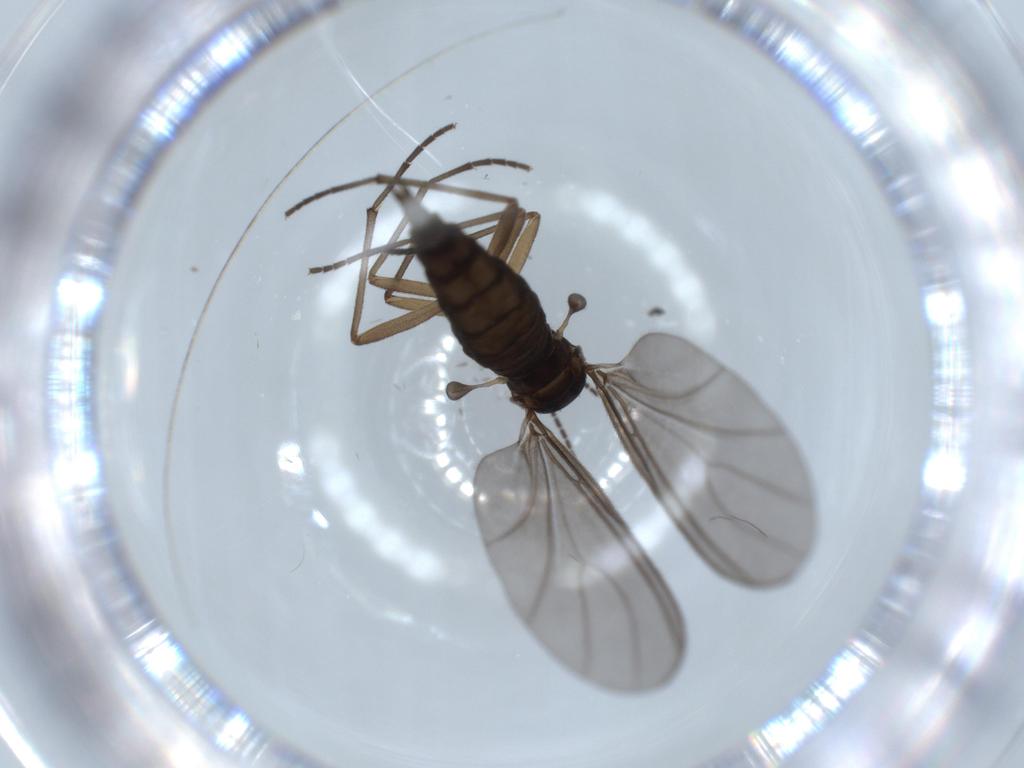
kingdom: Animalia
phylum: Arthropoda
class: Insecta
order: Diptera
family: Sciaridae
